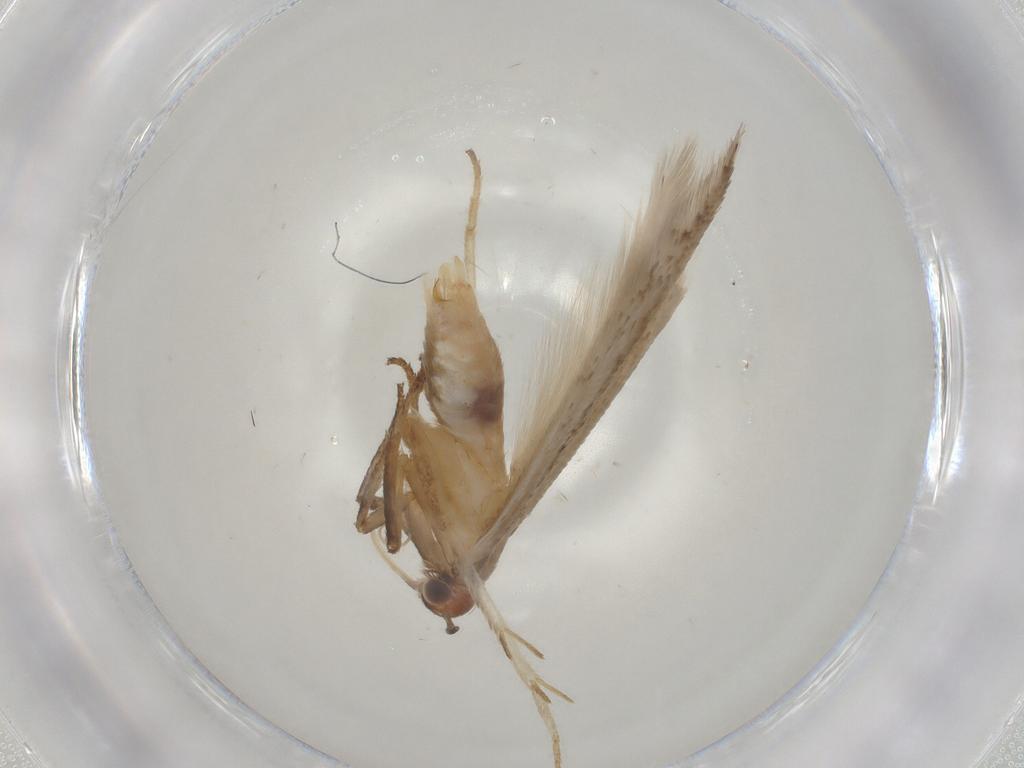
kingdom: Animalia
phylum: Arthropoda
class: Insecta
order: Lepidoptera
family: Gelechiidae
